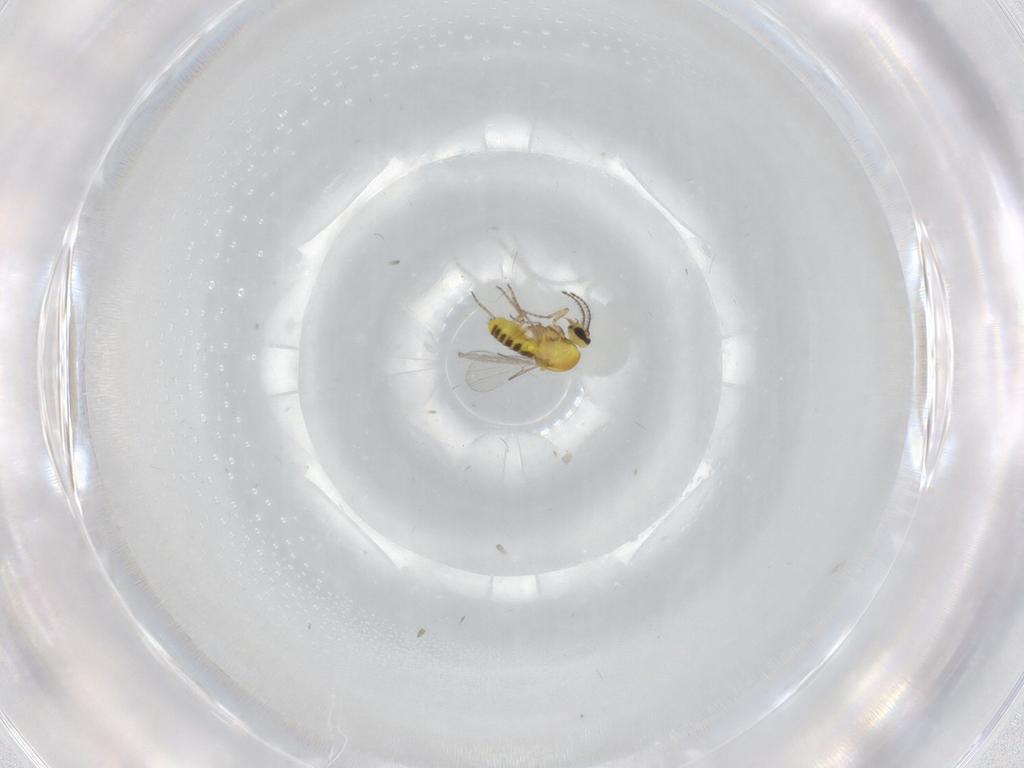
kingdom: Animalia
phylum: Arthropoda
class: Insecta
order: Diptera
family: Ceratopogonidae
